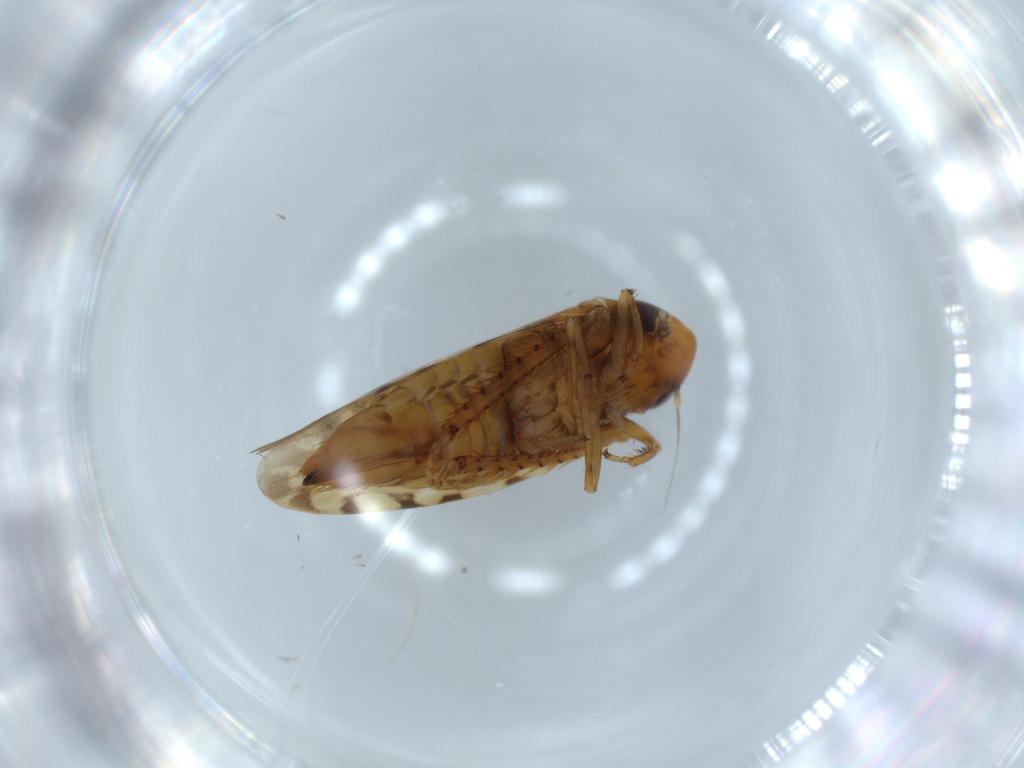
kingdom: Animalia
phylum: Arthropoda
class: Insecta
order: Hemiptera
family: Cicadellidae
